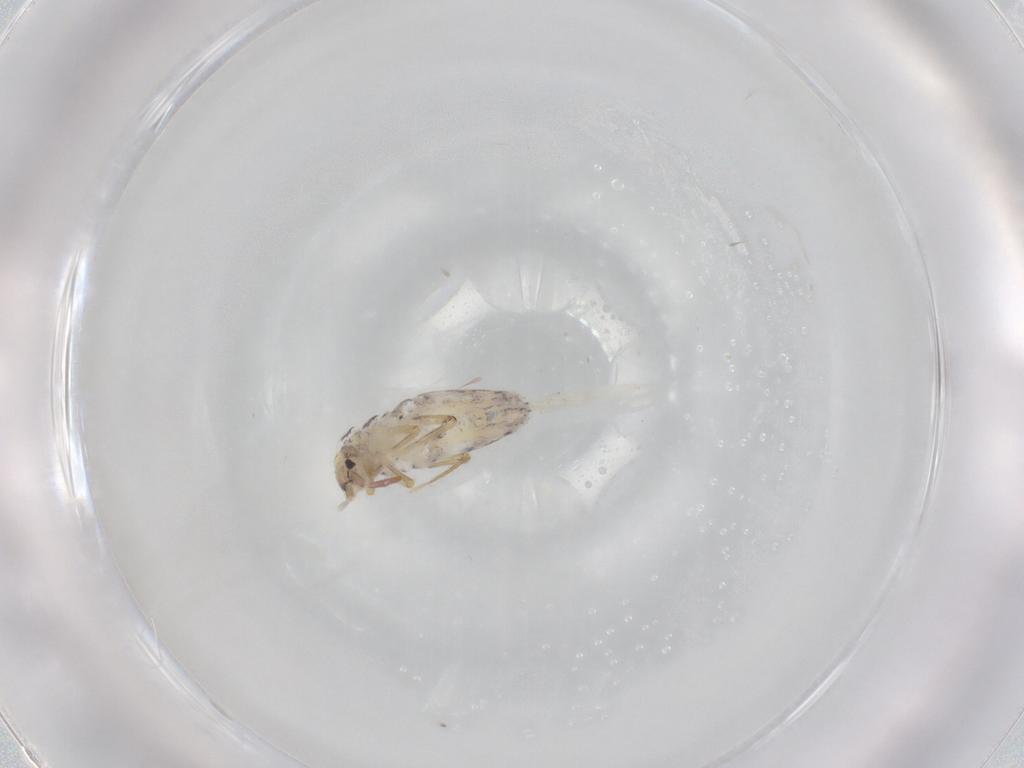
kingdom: Animalia
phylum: Arthropoda
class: Collembola
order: Entomobryomorpha
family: Entomobryidae
